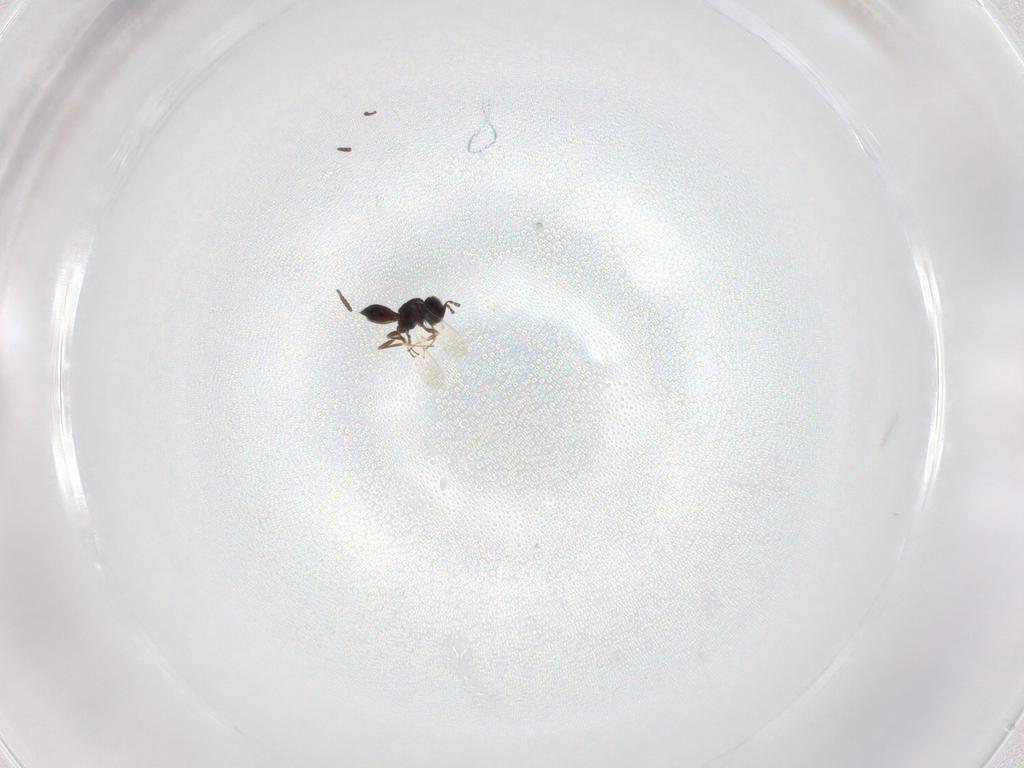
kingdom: Animalia
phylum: Arthropoda
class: Insecta
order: Hymenoptera
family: Scelionidae
